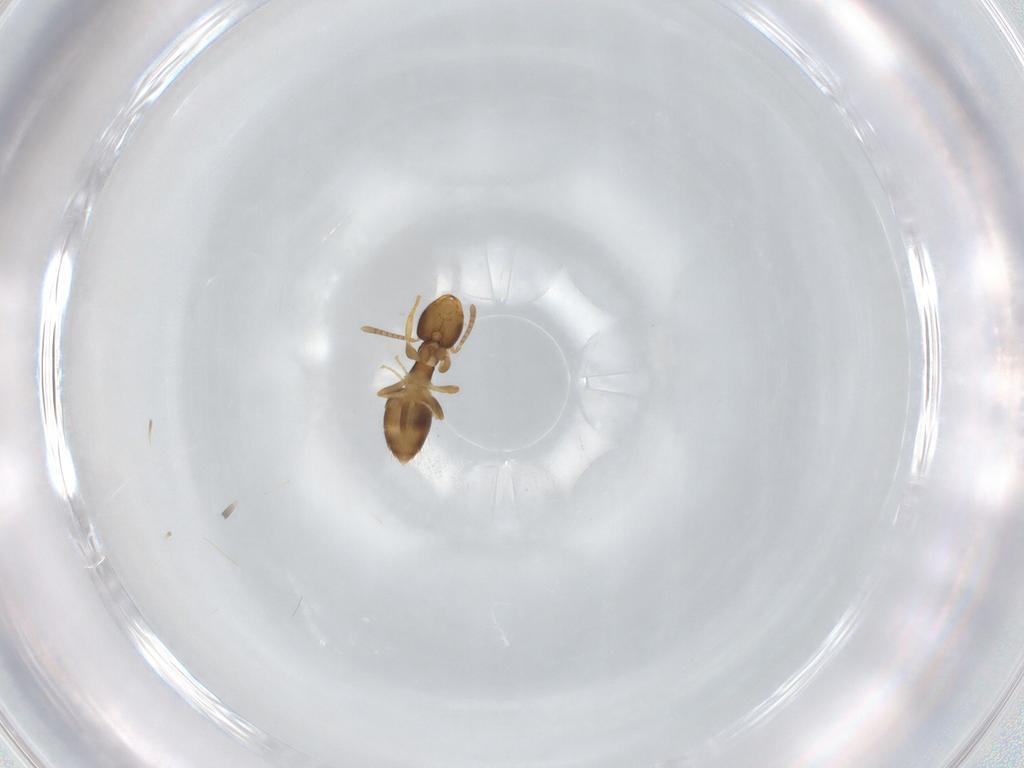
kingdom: Animalia
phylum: Arthropoda
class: Insecta
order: Hymenoptera
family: Formicidae
